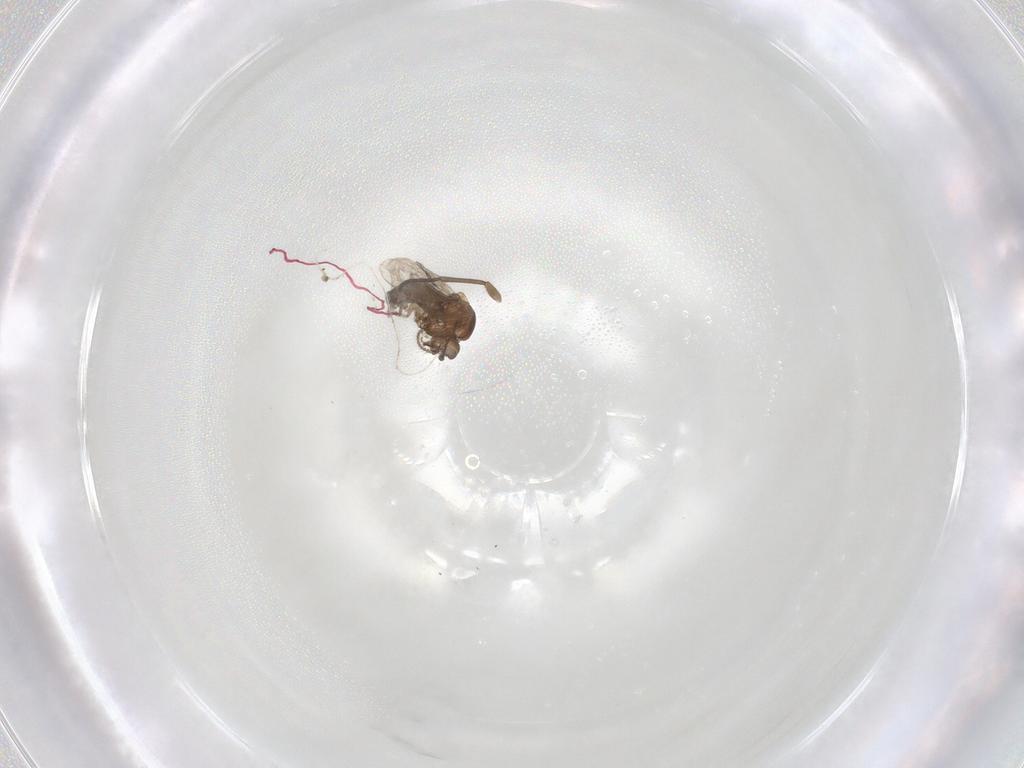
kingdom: Animalia
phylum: Arthropoda
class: Insecta
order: Diptera
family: Ceratopogonidae
